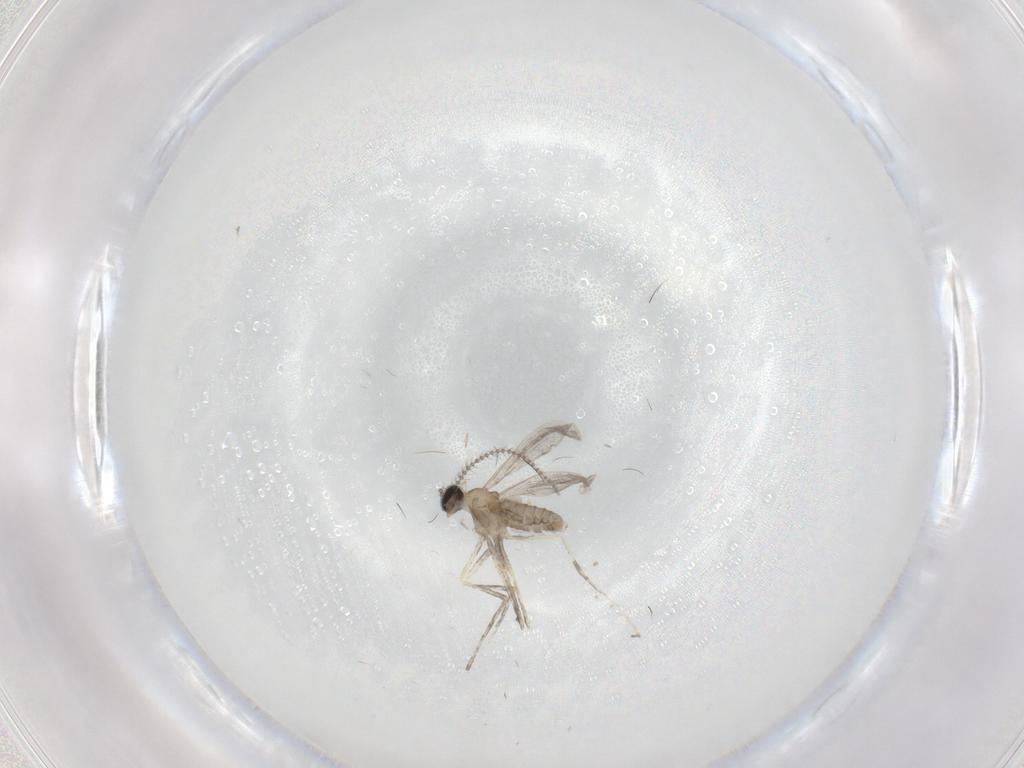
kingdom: Animalia
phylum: Arthropoda
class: Insecta
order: Diptera
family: Cecidomyiidae
